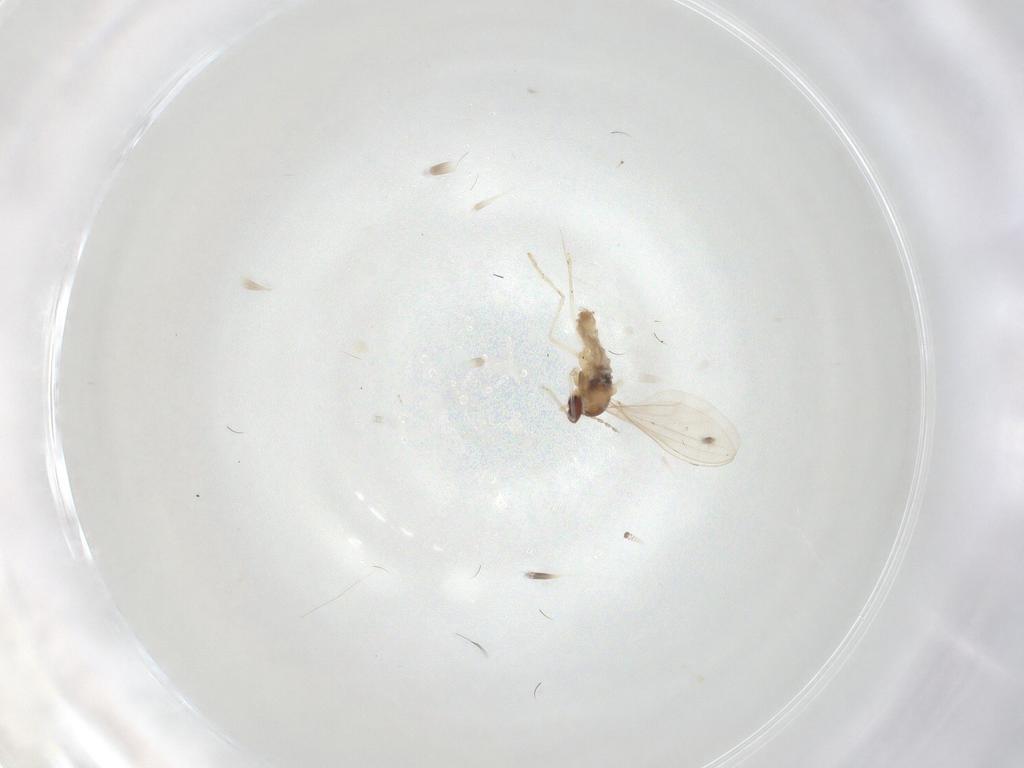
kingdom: Animalia
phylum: Arthropoda
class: Insecta
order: Diptera
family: Cecidomyiidae
